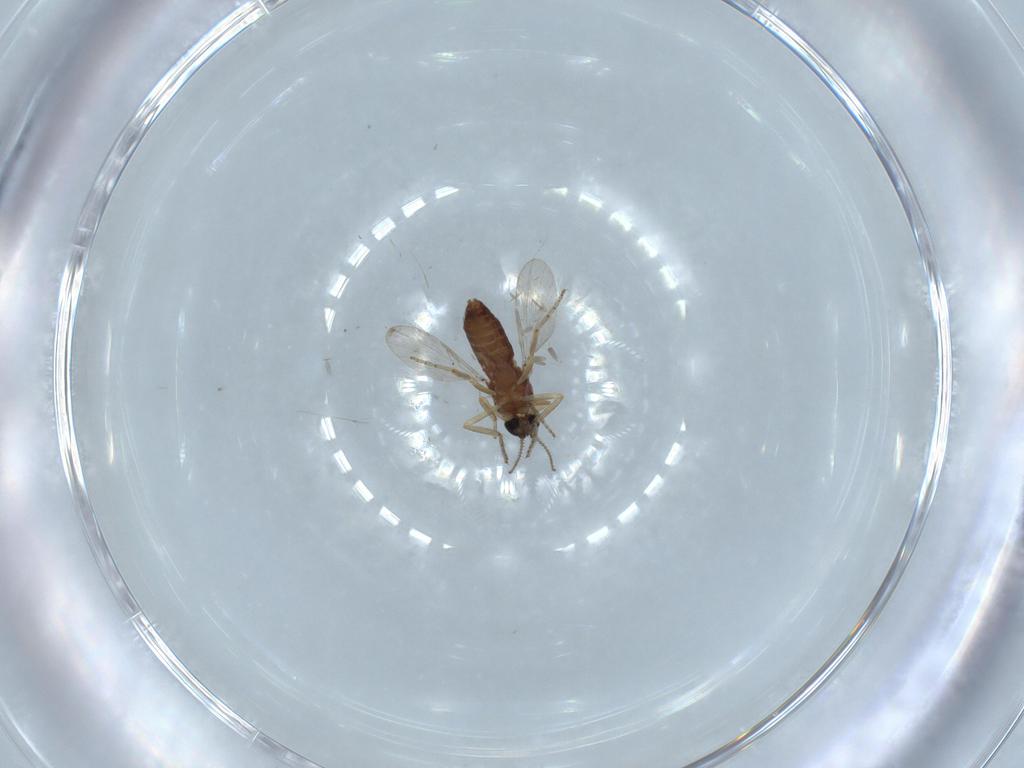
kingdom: Animalia
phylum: Arthropoda
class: Insecta
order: Diptera
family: Ceratopogonidae
